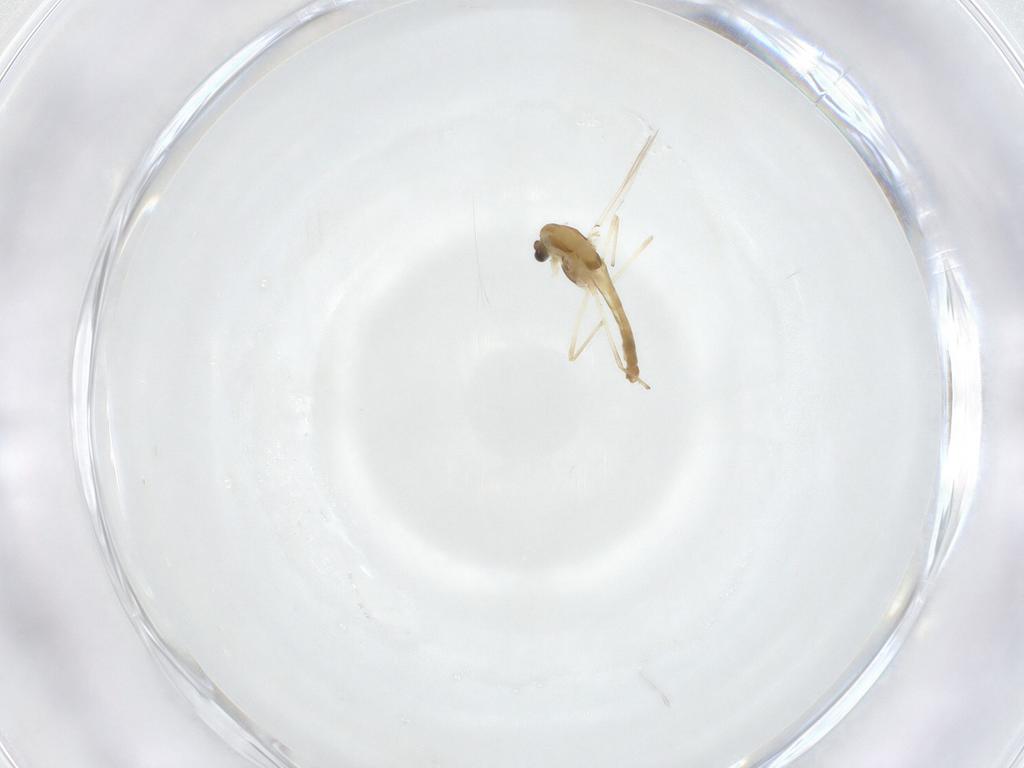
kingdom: Animalia
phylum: Arthropoda
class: Insecta
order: Diptera
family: Chironomidae
